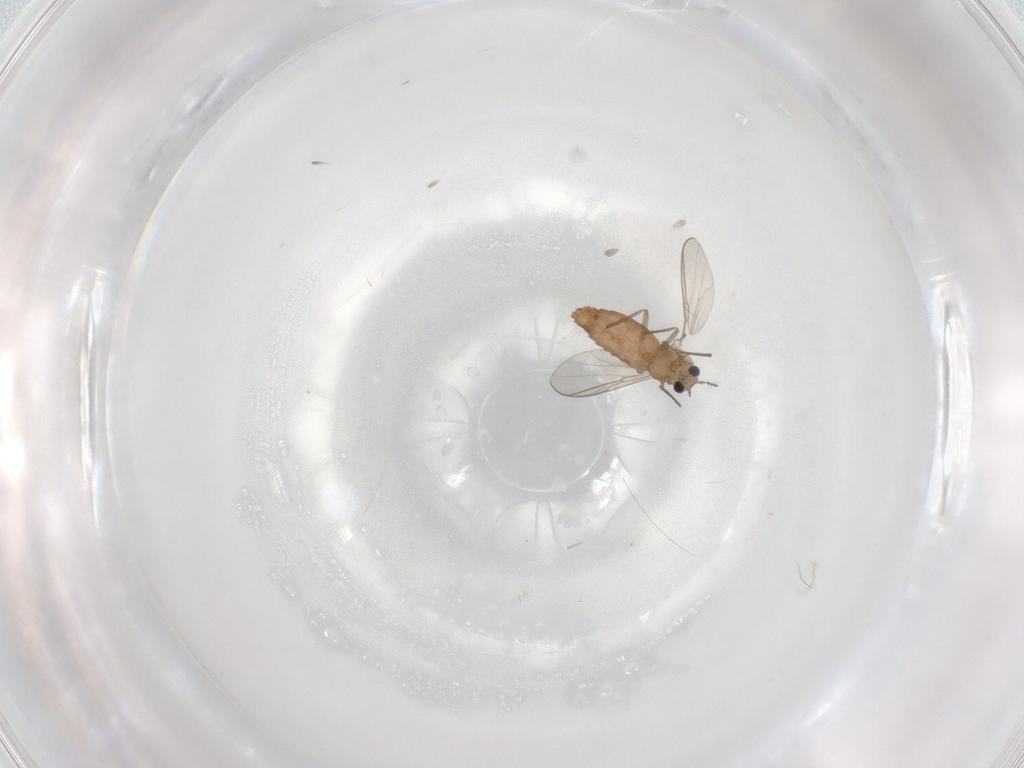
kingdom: Animalia
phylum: Arthropoda
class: Insecta
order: Diptera
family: Chironomidae
